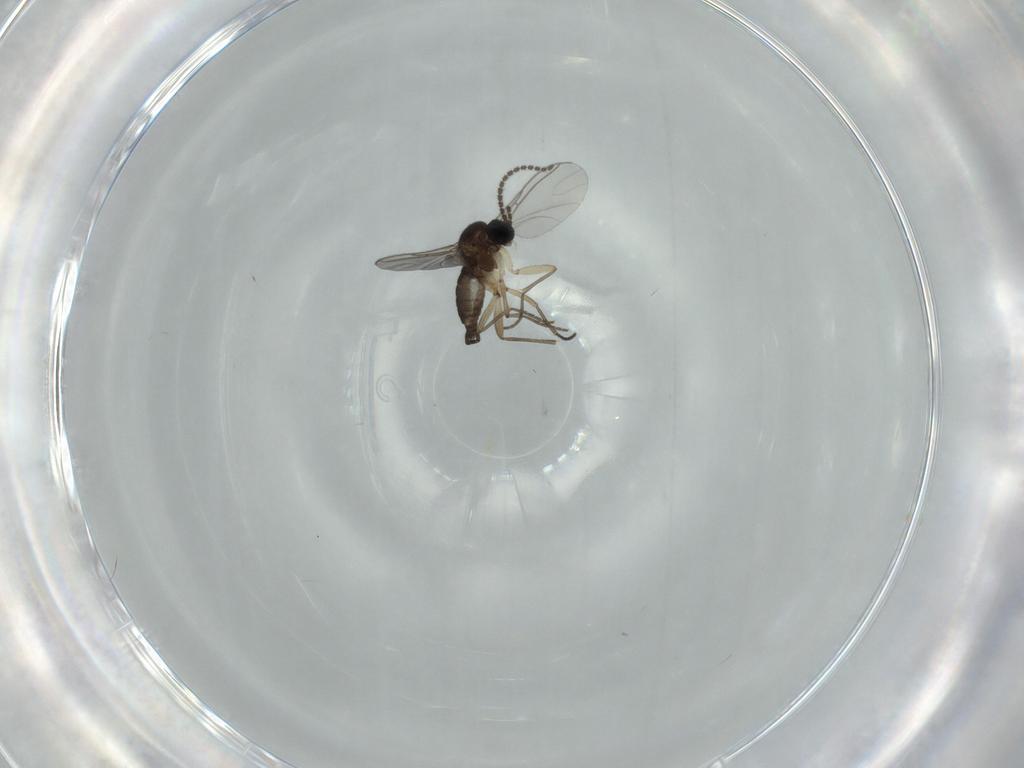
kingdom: Animalia
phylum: Arthropoda
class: Insecta
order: Diptera
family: Sciaridae
